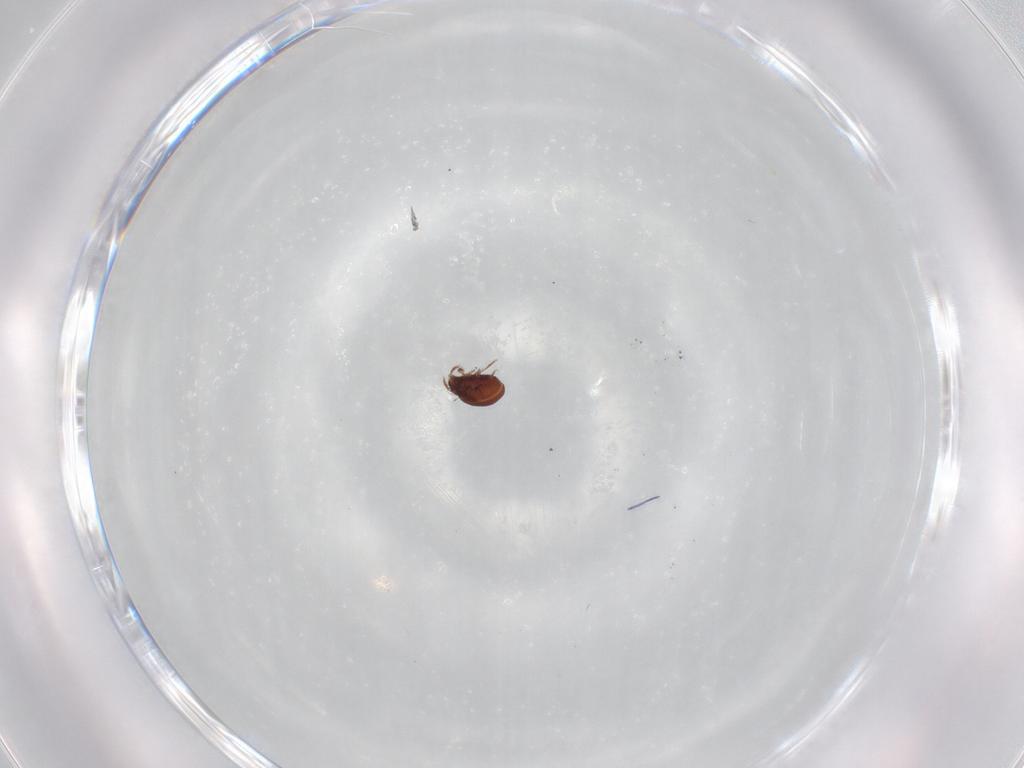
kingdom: Animalia
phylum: Arthropoda
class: Arachnida
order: Sarcoptiformes
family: Phenopelopidae
